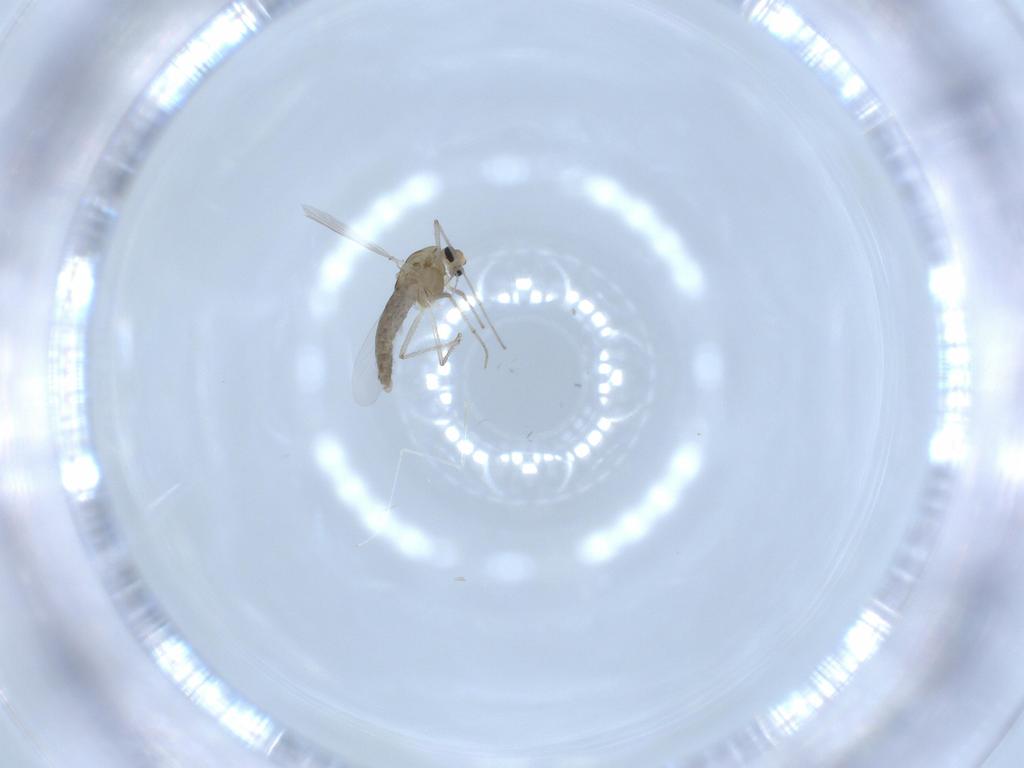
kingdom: Animalia
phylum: Arthropoda
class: Insecta
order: Diptera
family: Chironomidae
